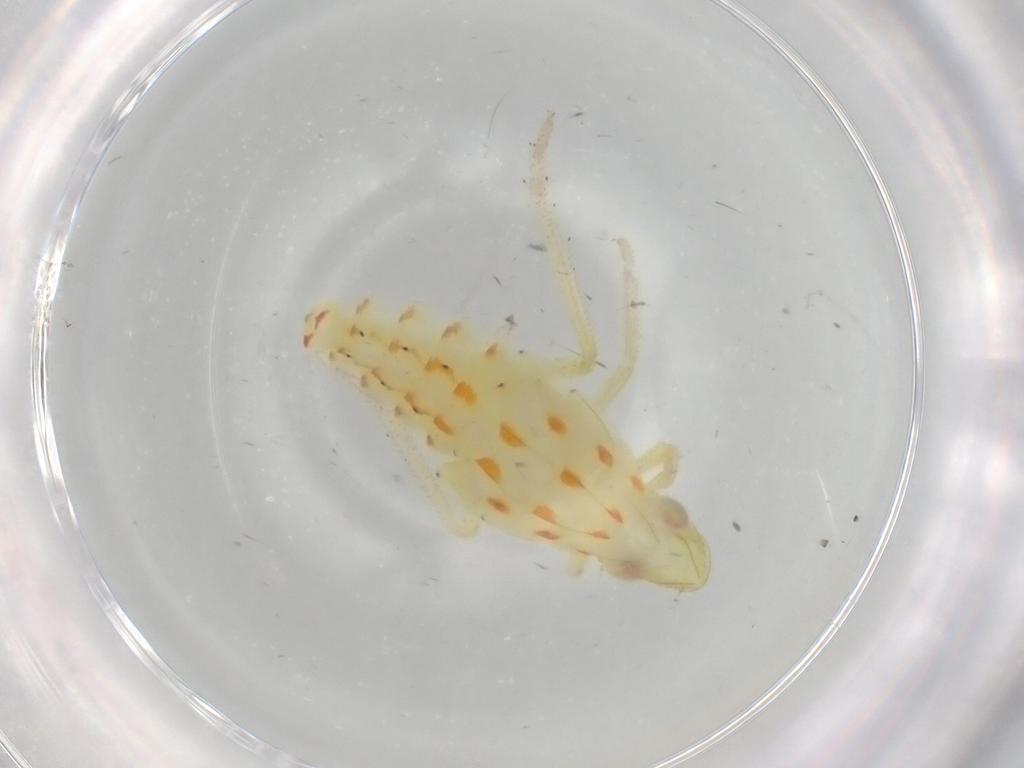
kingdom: Animalia
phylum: Arthropoda
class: Insecta
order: Hemiptera
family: Tropiduchidae
